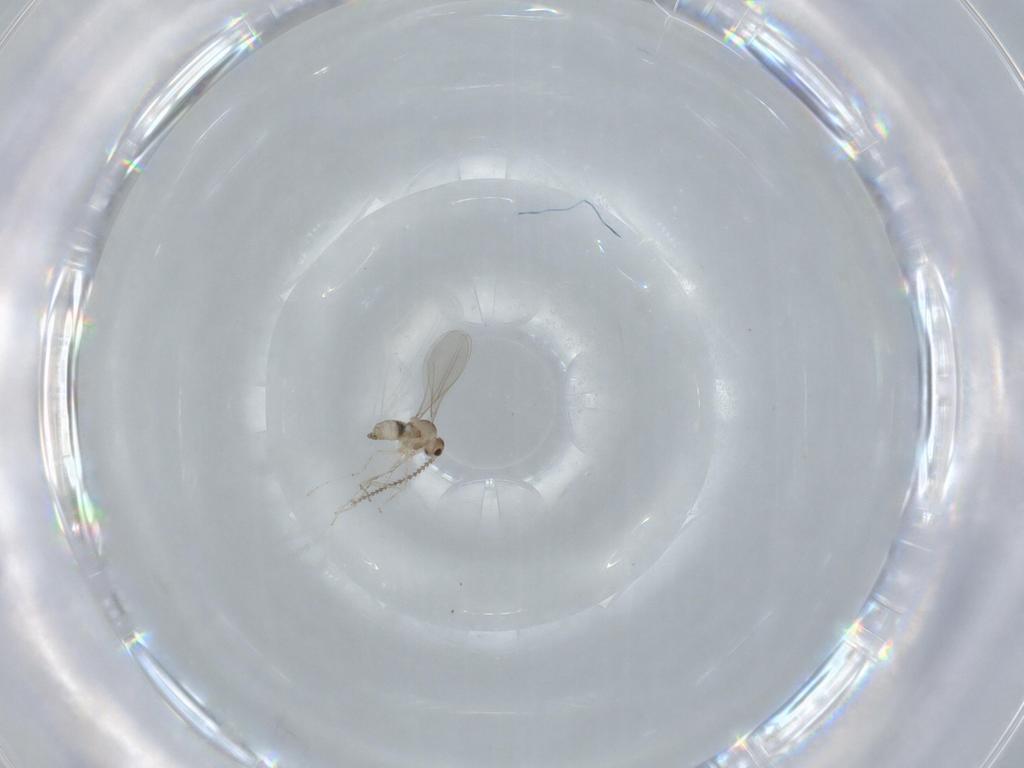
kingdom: Animalia
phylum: Arthropoda
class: Insecta
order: Diptera
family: Cecidomyiidae
